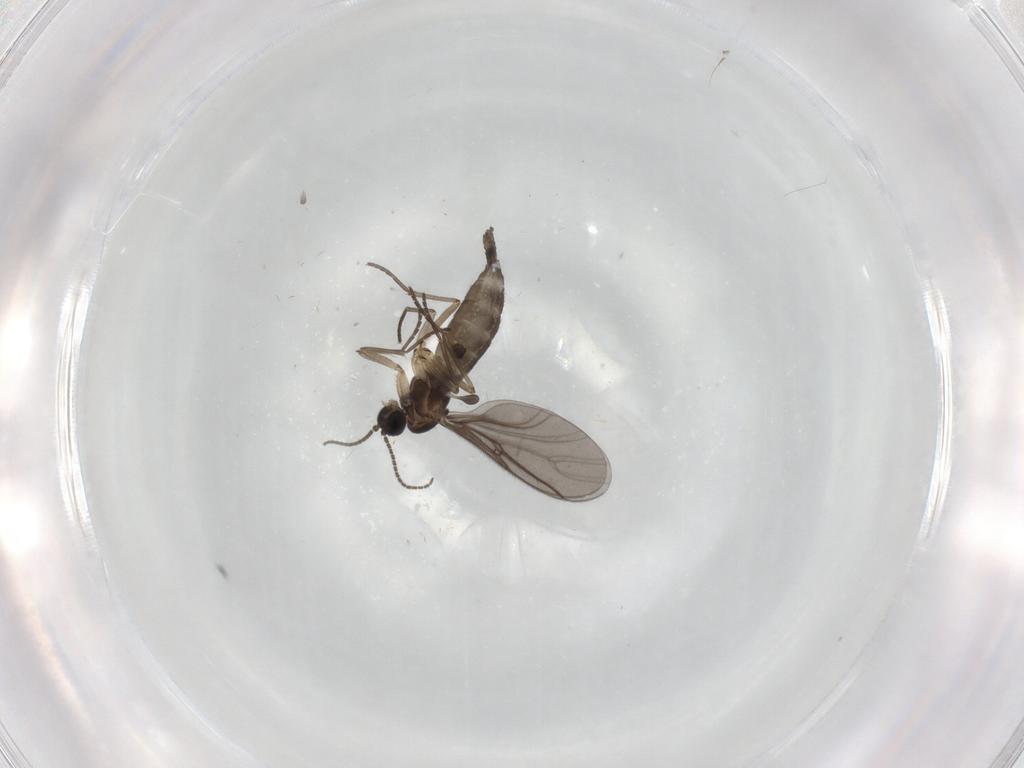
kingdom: Animalia
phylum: Arthropoda
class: Insecta
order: Diptera
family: Sciaridae
